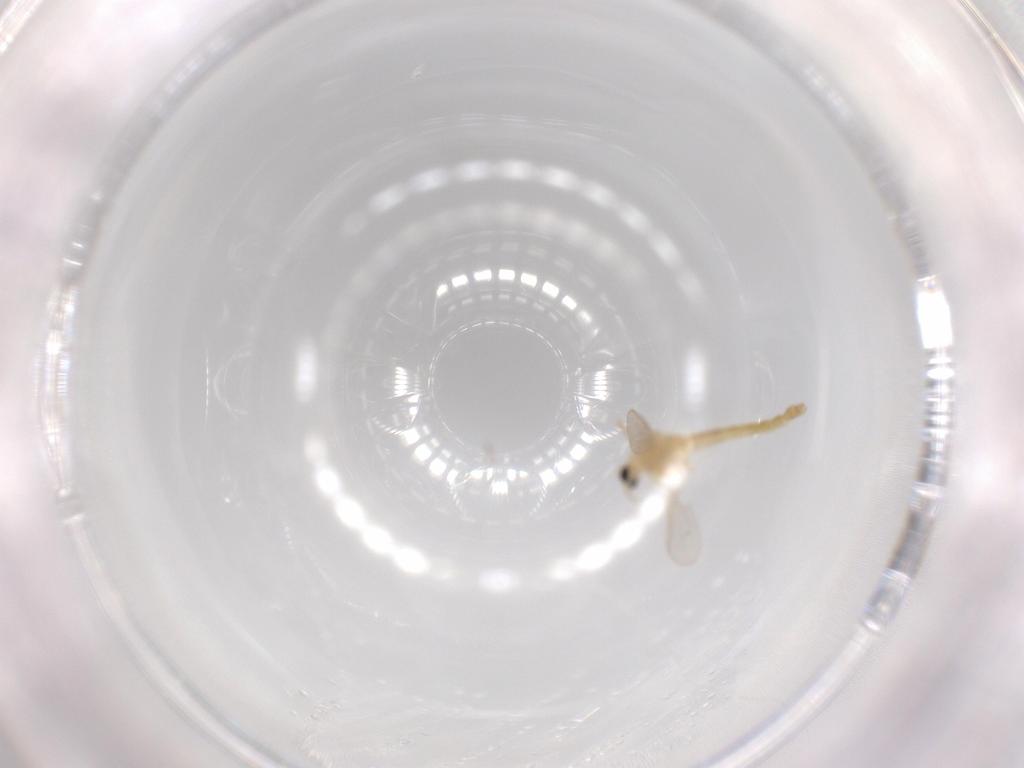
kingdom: Animalia
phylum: Arthropoda
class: Insecta
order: Diptera
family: Chironomidae
